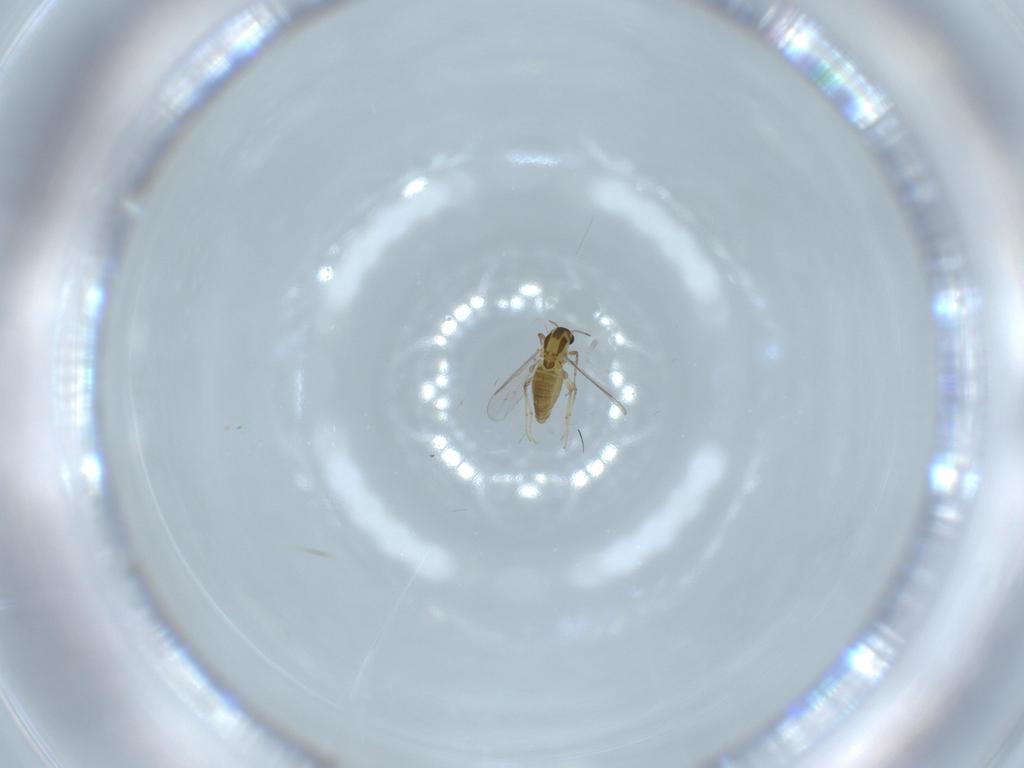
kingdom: Animalia
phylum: Arthropoda
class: Insecta
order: Diptera
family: Chironomidae
